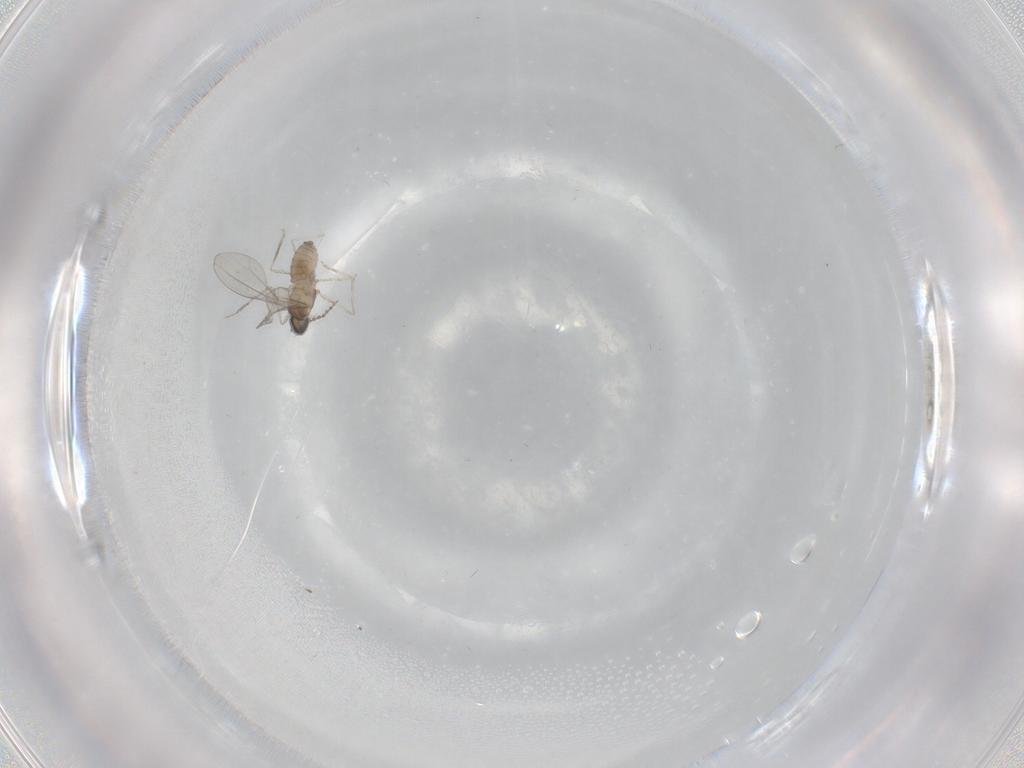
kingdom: Animalia
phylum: Arthropoda
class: Insecta
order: Diptera
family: Cecidomyiidae
